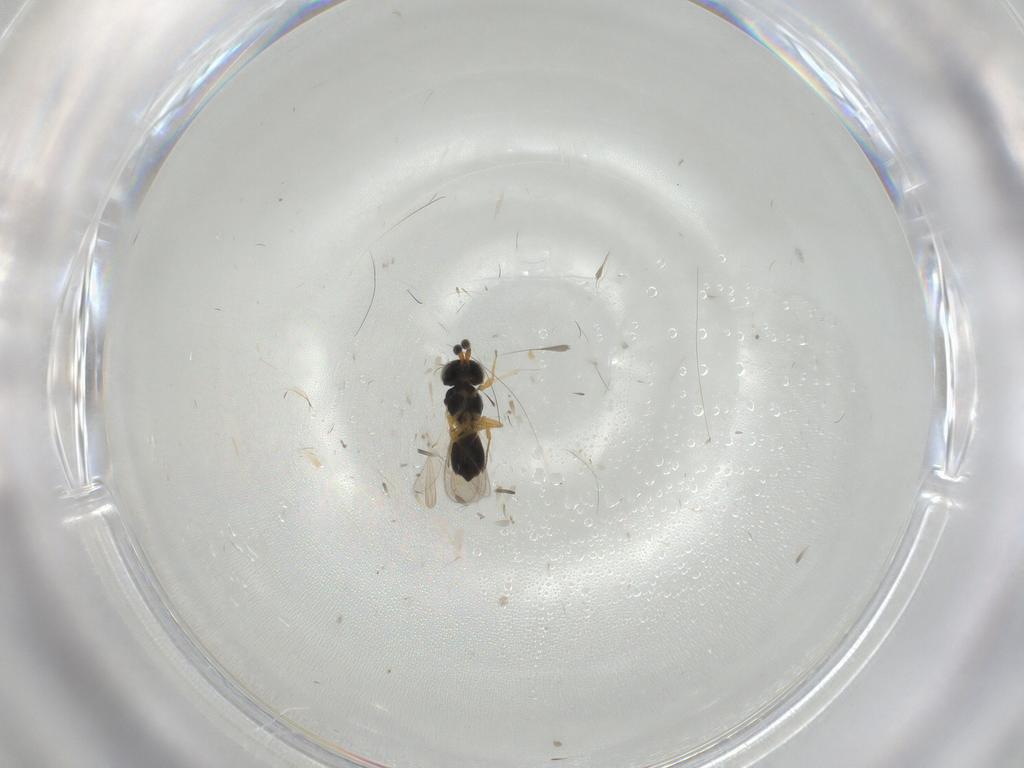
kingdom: Animalia
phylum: Arthropoda
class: Insecta
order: Hymenoptera
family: Scelionidae
